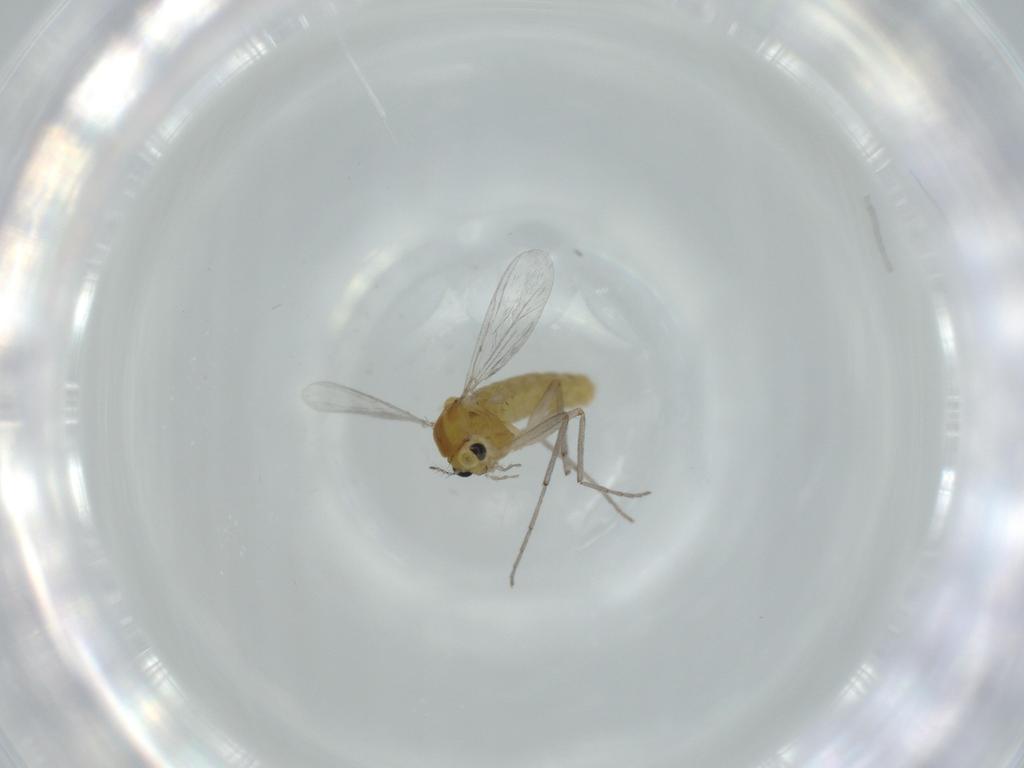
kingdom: Animalia
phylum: Arthropoda
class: Insecta
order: Diptera
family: Chironomidae
